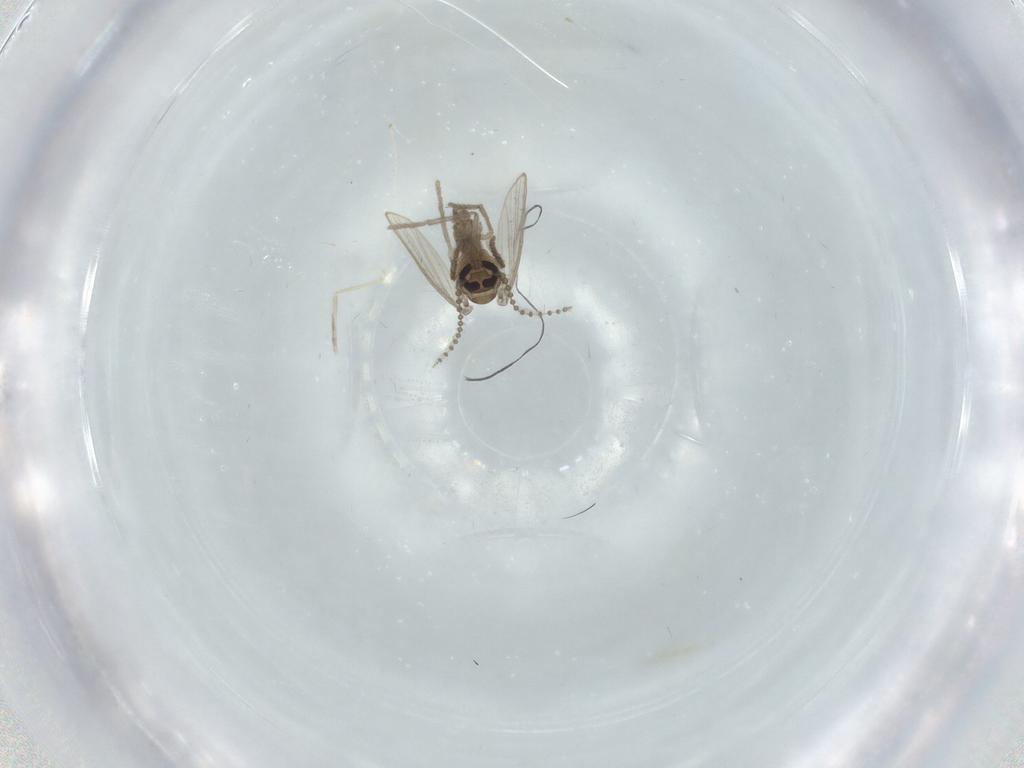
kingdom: Animalia
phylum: Arthropoda
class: Insecta
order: Diptera
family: Psychodidae
